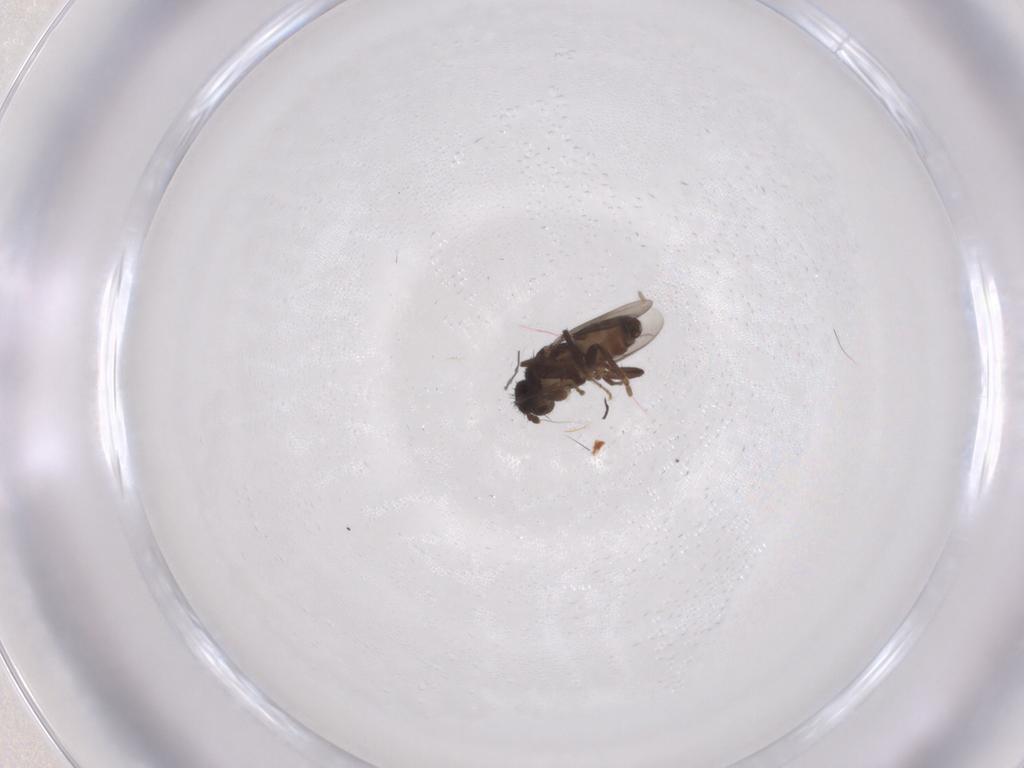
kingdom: Animalia
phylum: Arthropoda
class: Insecta
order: Diptera
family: Sphaeroceridae
